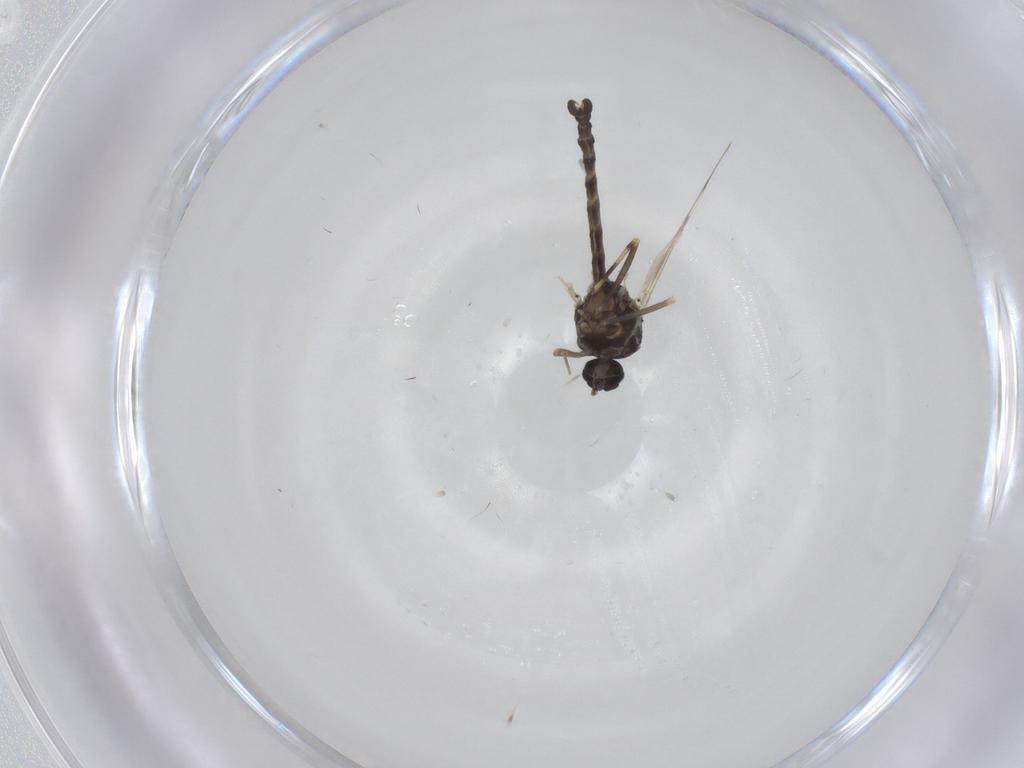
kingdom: Animalia
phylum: Arthropoda
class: Insecta
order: Diptera
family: Ceratopogonidae
